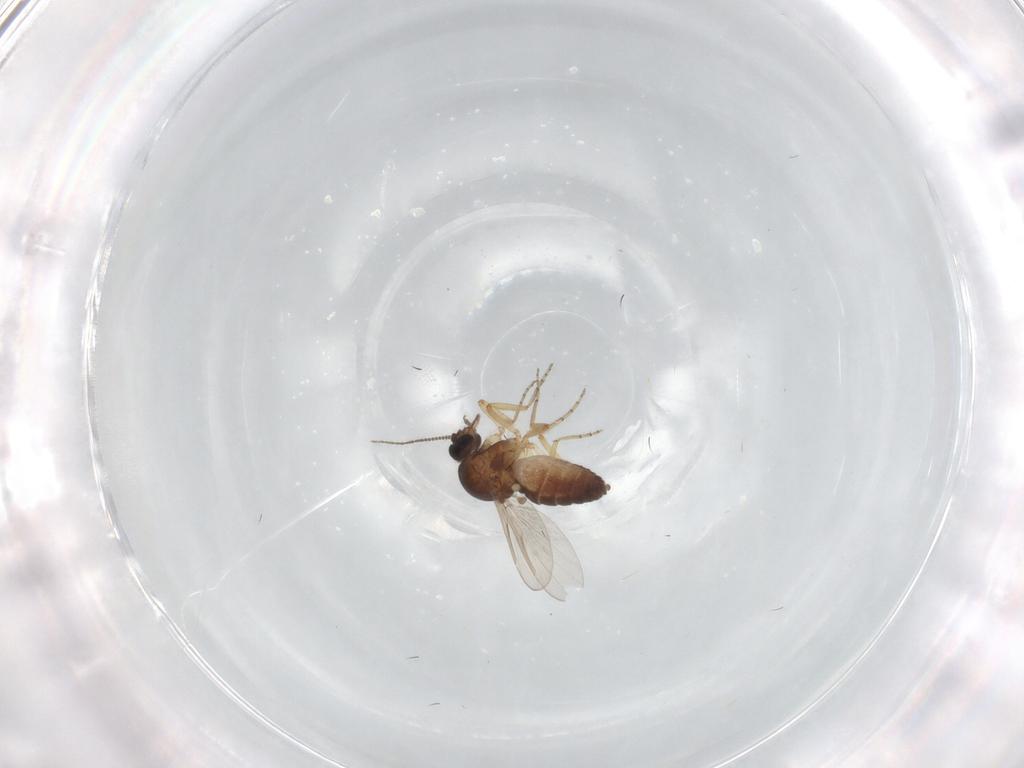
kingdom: Animalia
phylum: Arthropoda
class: Insecta
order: Diptera
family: Ceratopogonidae
